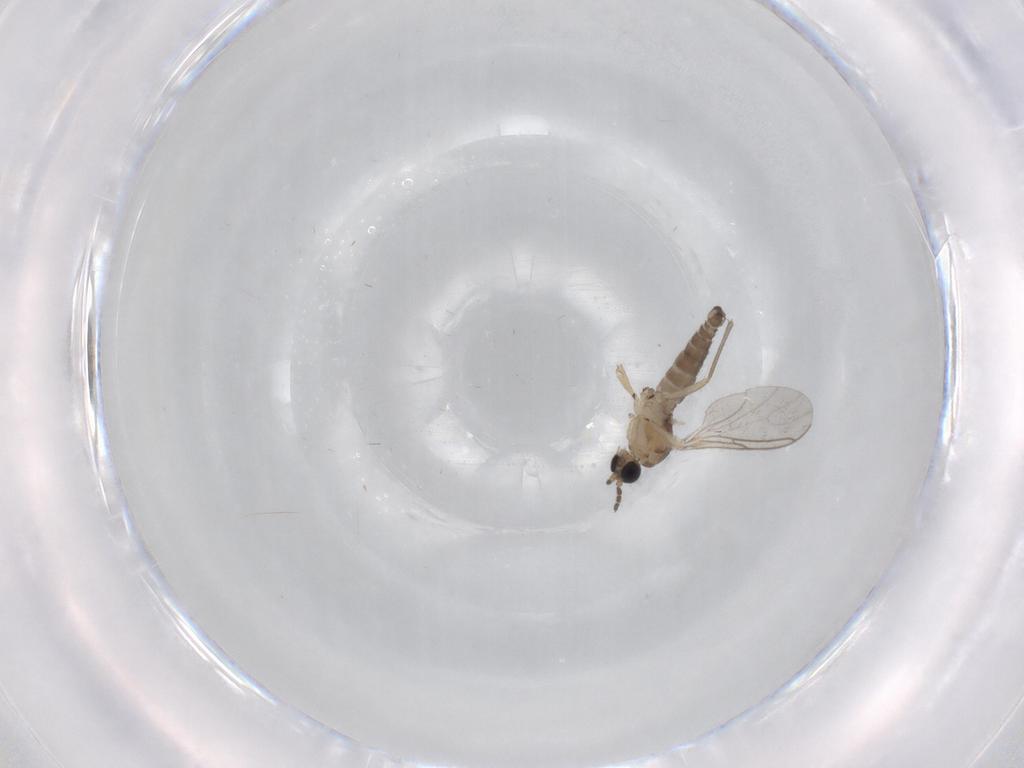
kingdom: Animalia
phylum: Arthropoda
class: Insecta
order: Diptera
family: Sciaridae
